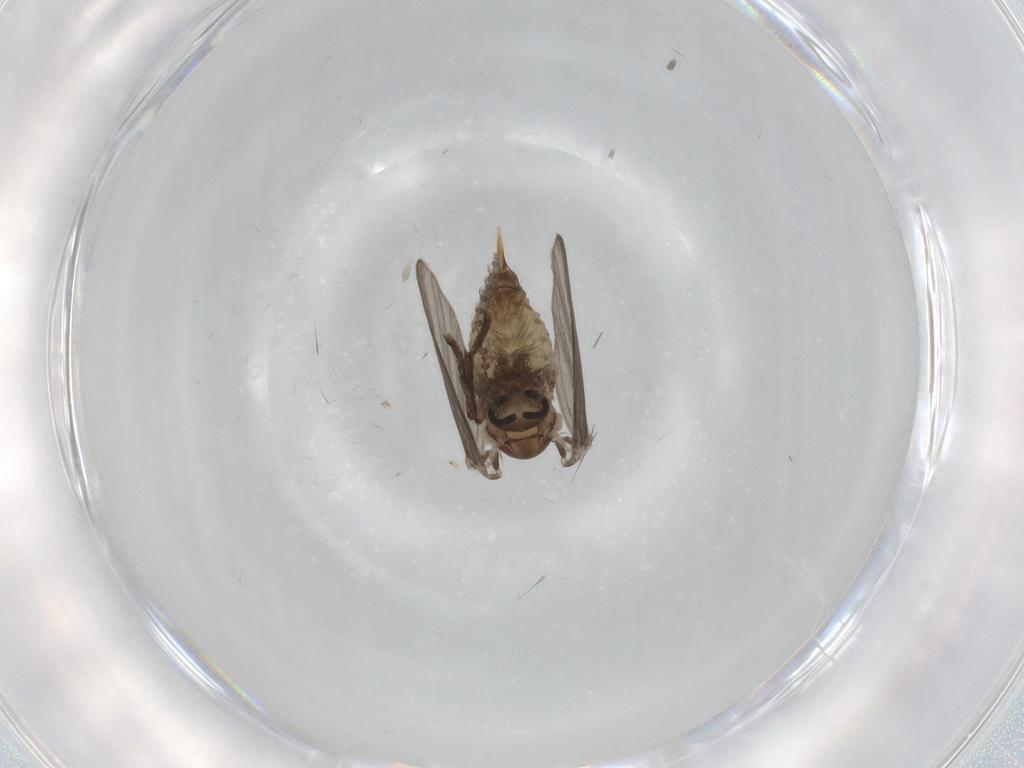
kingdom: Animalia
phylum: Arthropoda
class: Insecta
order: Diptera
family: Psychodidae
